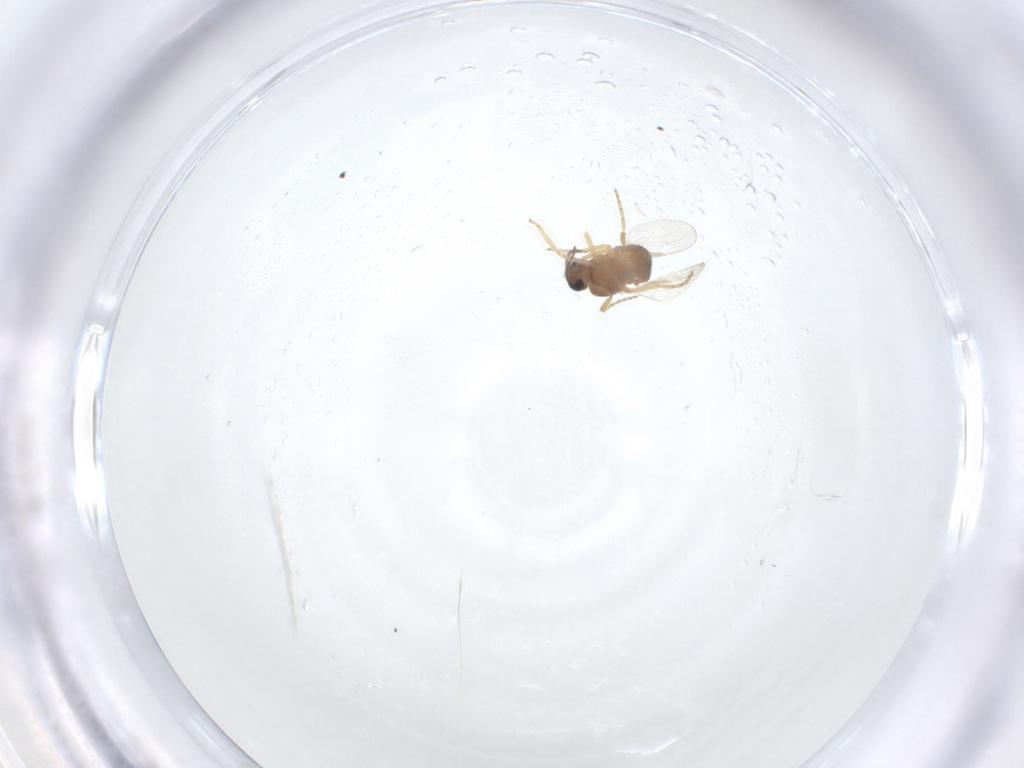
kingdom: Animalia
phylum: Arthropoda
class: Insecta
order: Diptera
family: Ceratopogonidae
